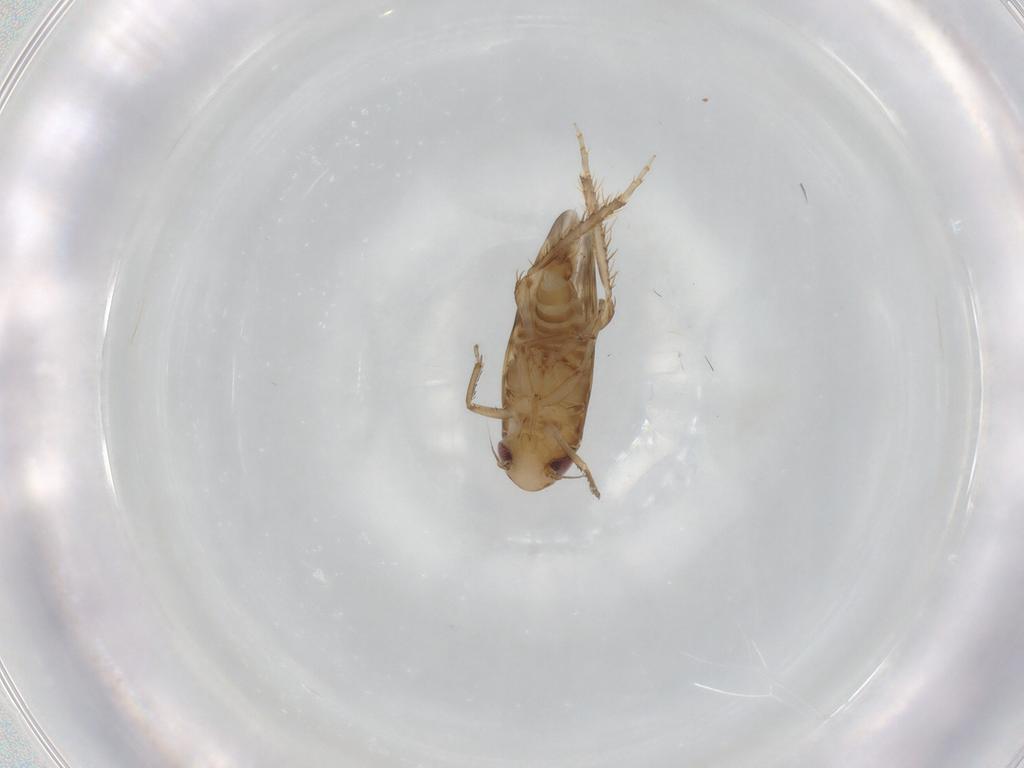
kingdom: Animalia
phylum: Arthropoda
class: Insecta
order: Hemiptera
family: Cicadellidae
